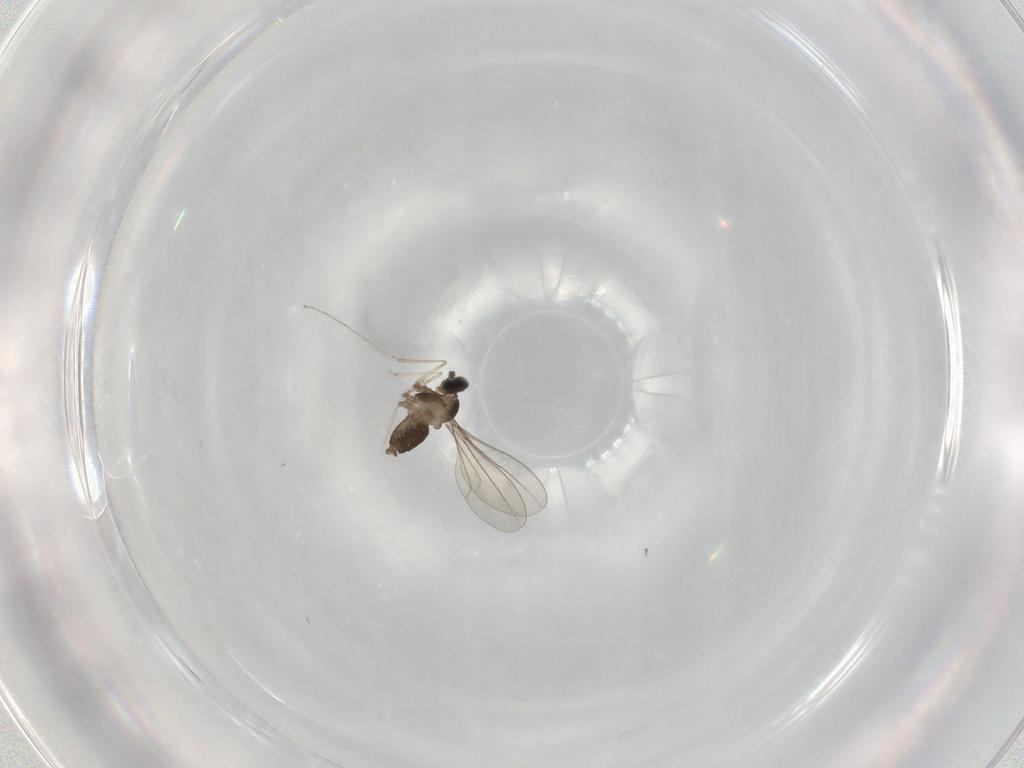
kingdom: Animalia
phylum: Arthropoda
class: Insecta
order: Diptera
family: Cecidomyiidae
